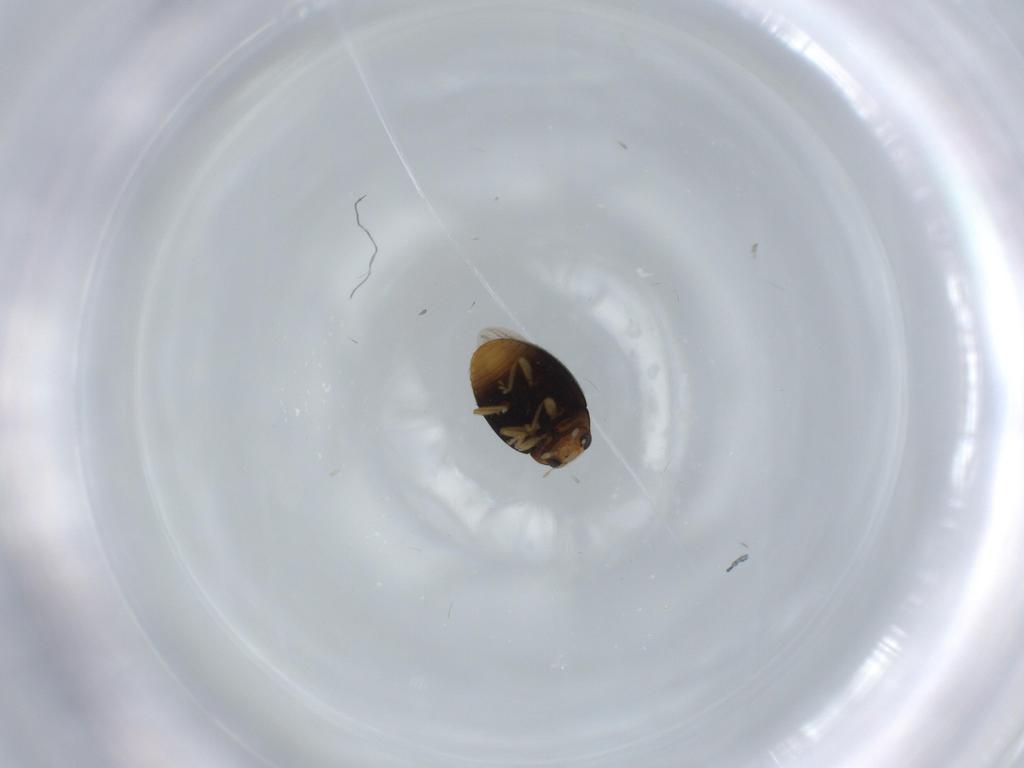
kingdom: Animalia
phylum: Arthropoda
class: Insecta
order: Coleoptera
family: Coccinellidae
